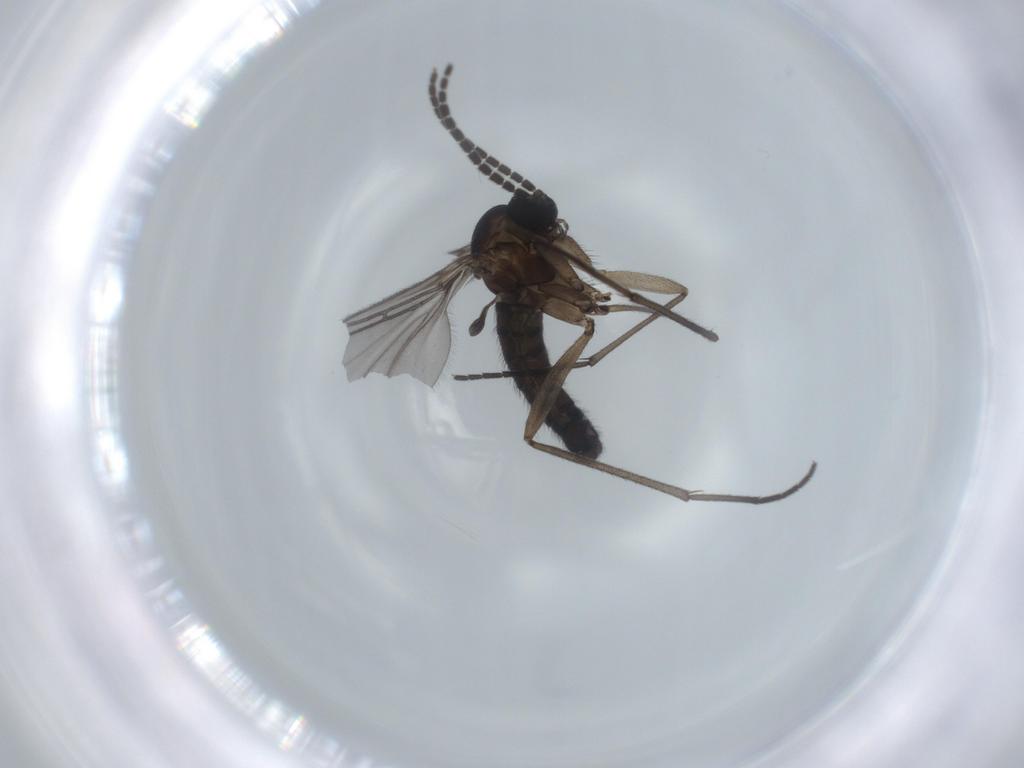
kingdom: Animalia
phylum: Arthropoda
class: Insecta
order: Diptera
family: Sciaridae
